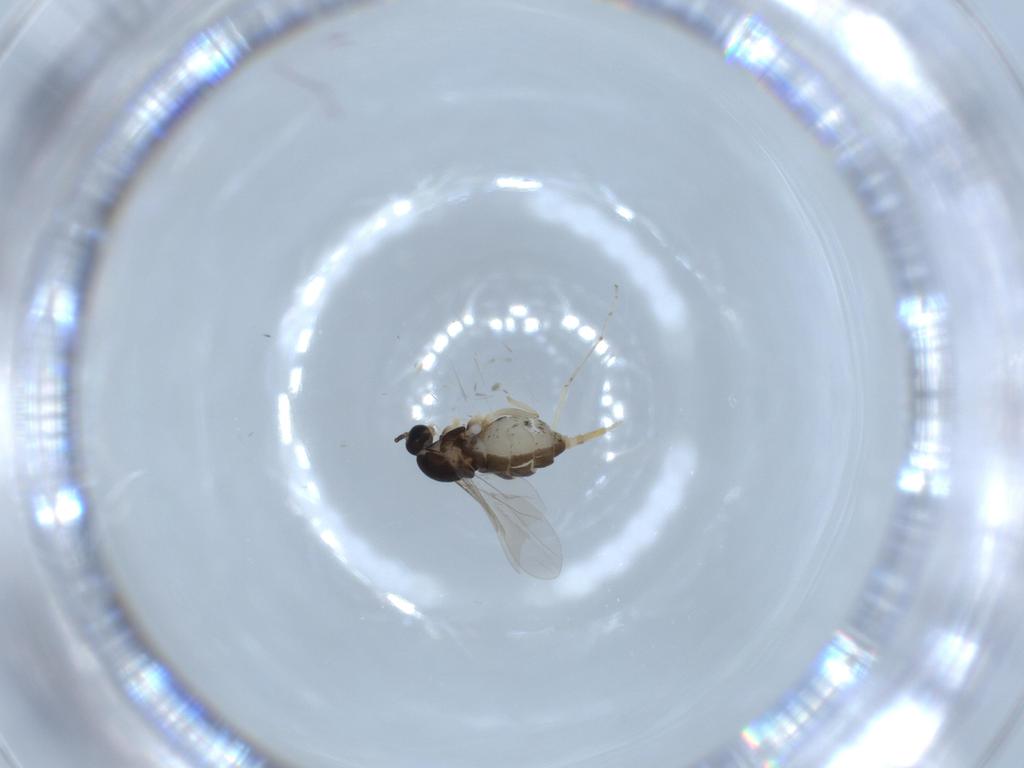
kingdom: Animalia
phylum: Arthropoda
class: Insecta
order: Diptera
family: Cecidomyiidae
